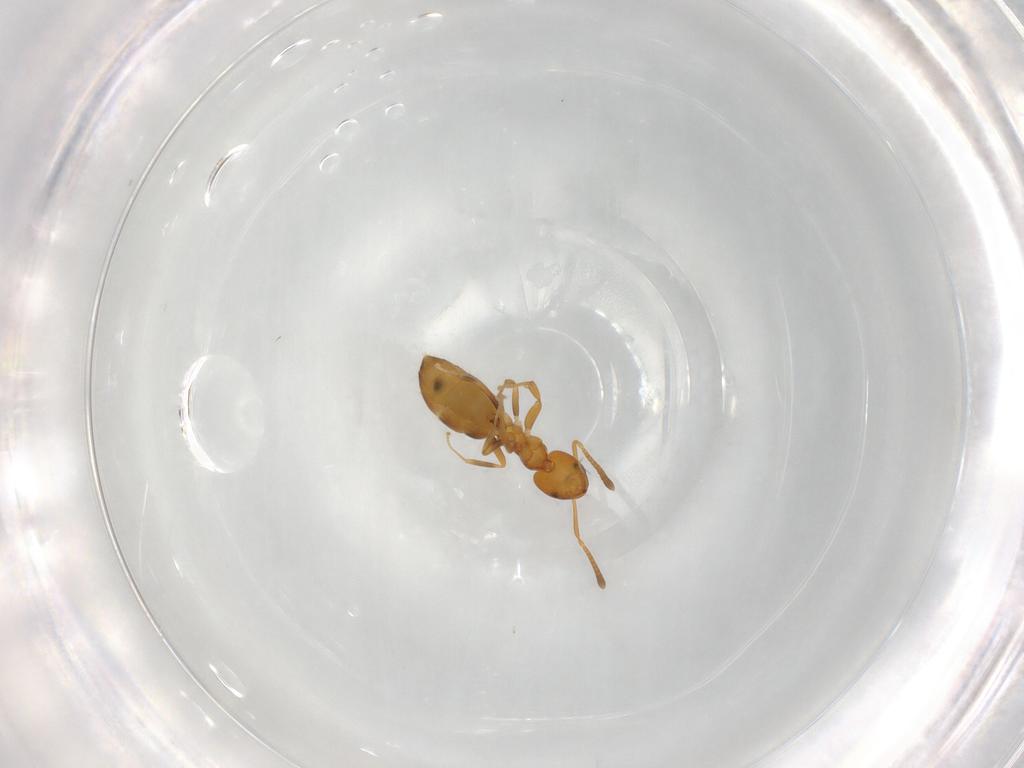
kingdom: Animalia
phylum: Arthropoda
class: Insecta
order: Hymenoptera
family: Formicidae
